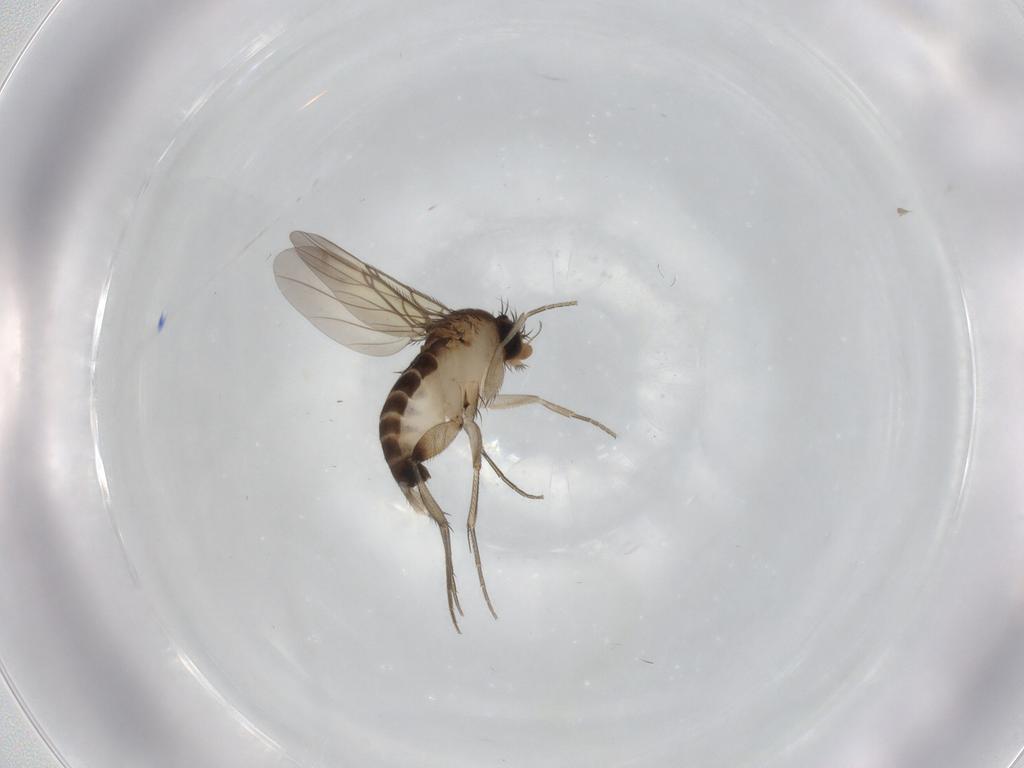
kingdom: Animalia
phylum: Arthropoda
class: Insecta
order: Diptera
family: Phoridae
